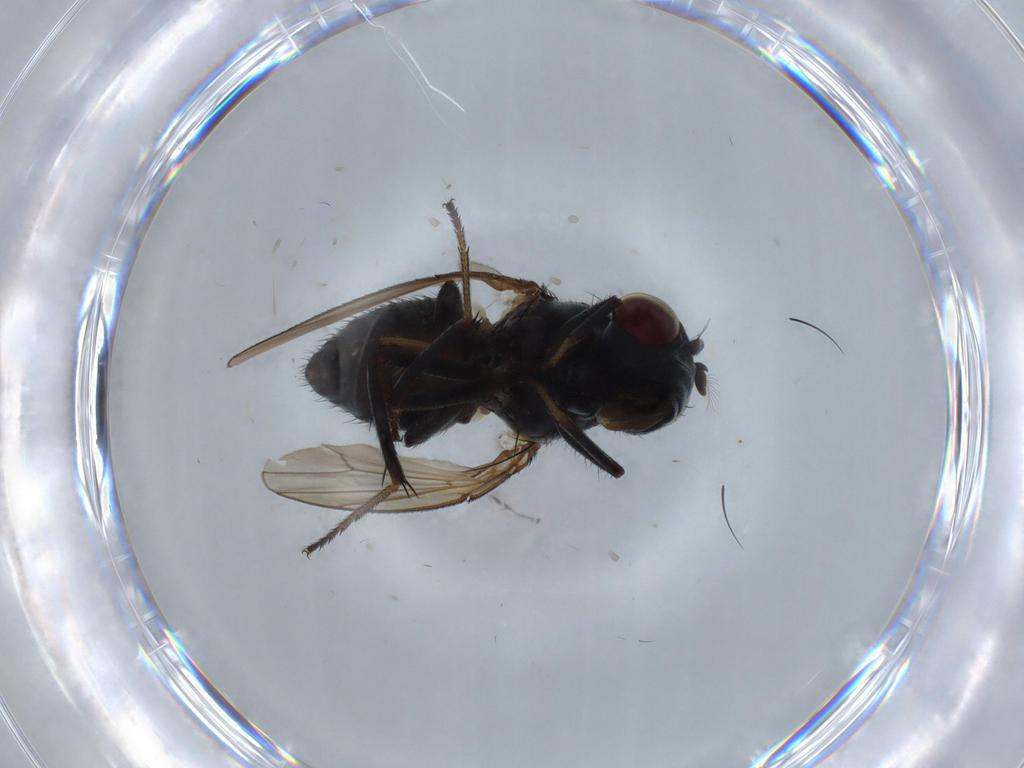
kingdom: Animalia
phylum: Arthropoda
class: Insecta
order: Diptera
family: Ephydridae
